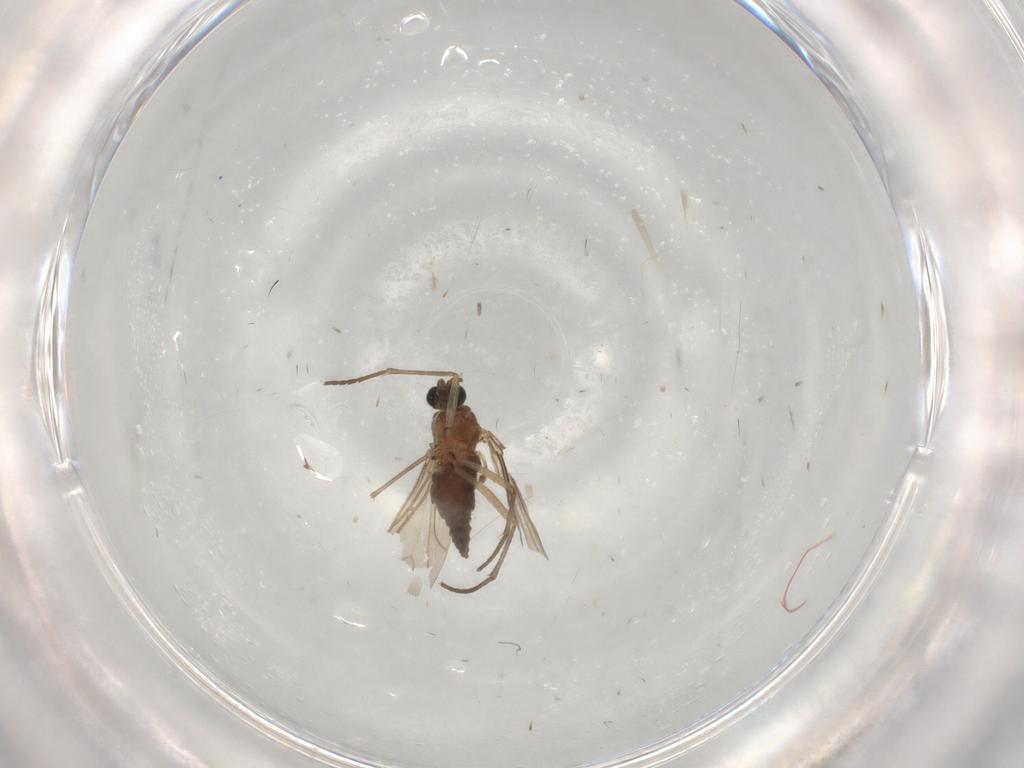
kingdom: Animalia
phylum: Arthropoda
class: Insecta
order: Diptera
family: Sciaridae
